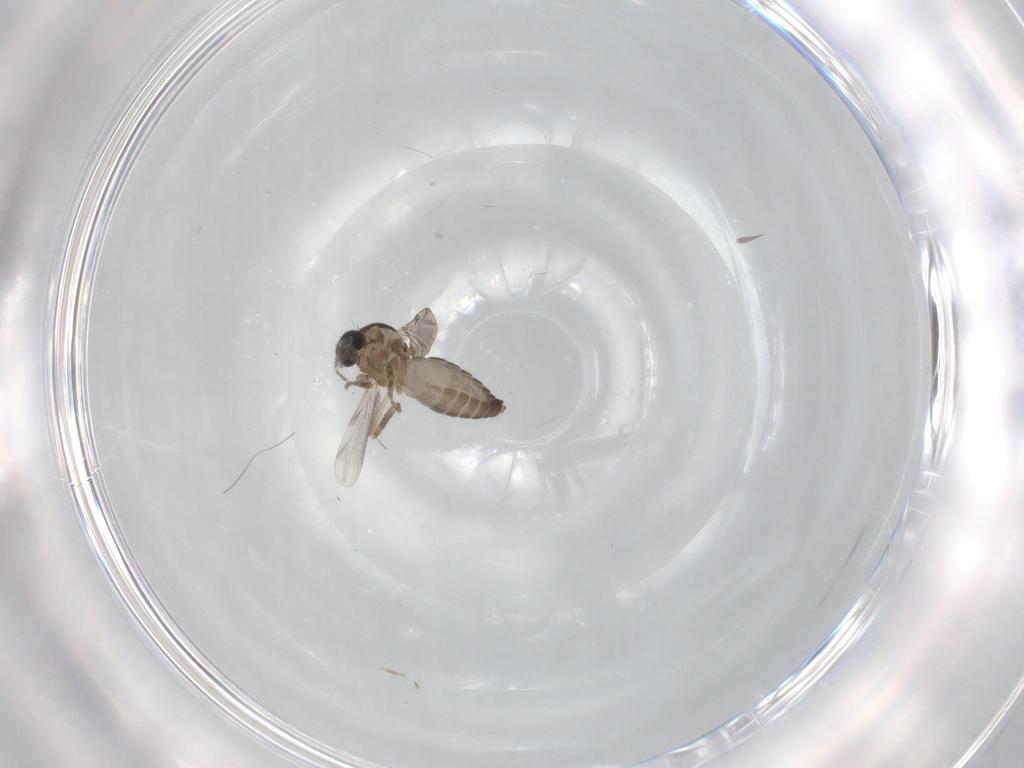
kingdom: Animalia
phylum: Arthropoda
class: Insecta
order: Diptera
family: Ceratopogonidae
